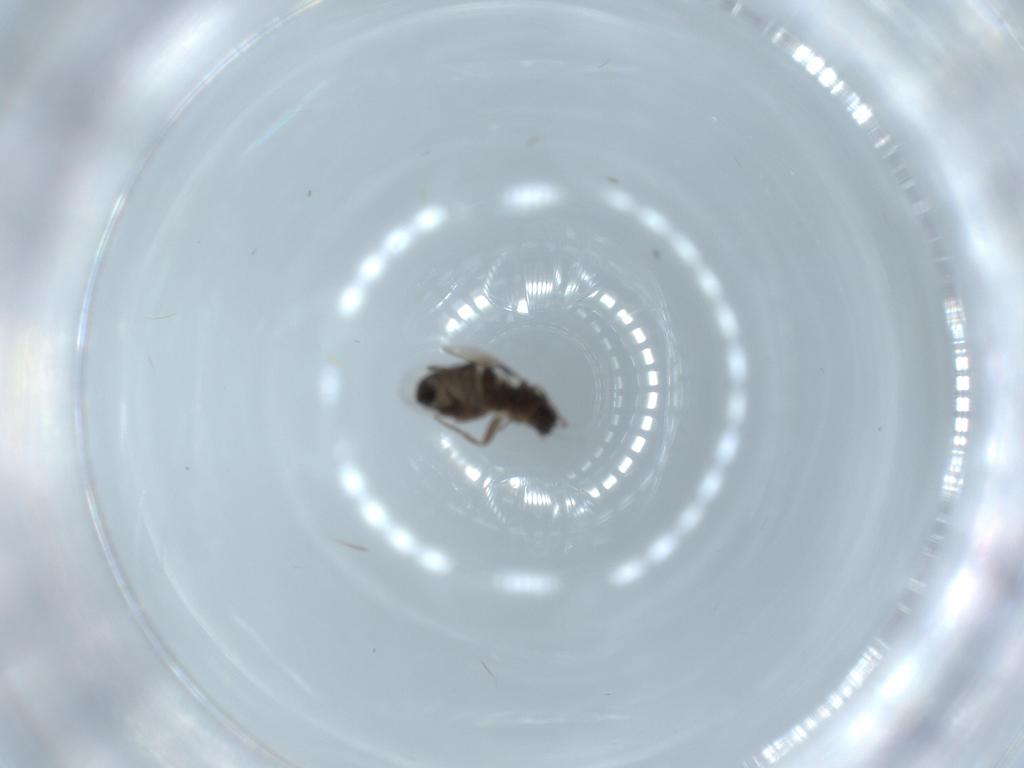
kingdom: Animalia
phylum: Arthropoda
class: Insecta
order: Diptera
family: Phoridae
